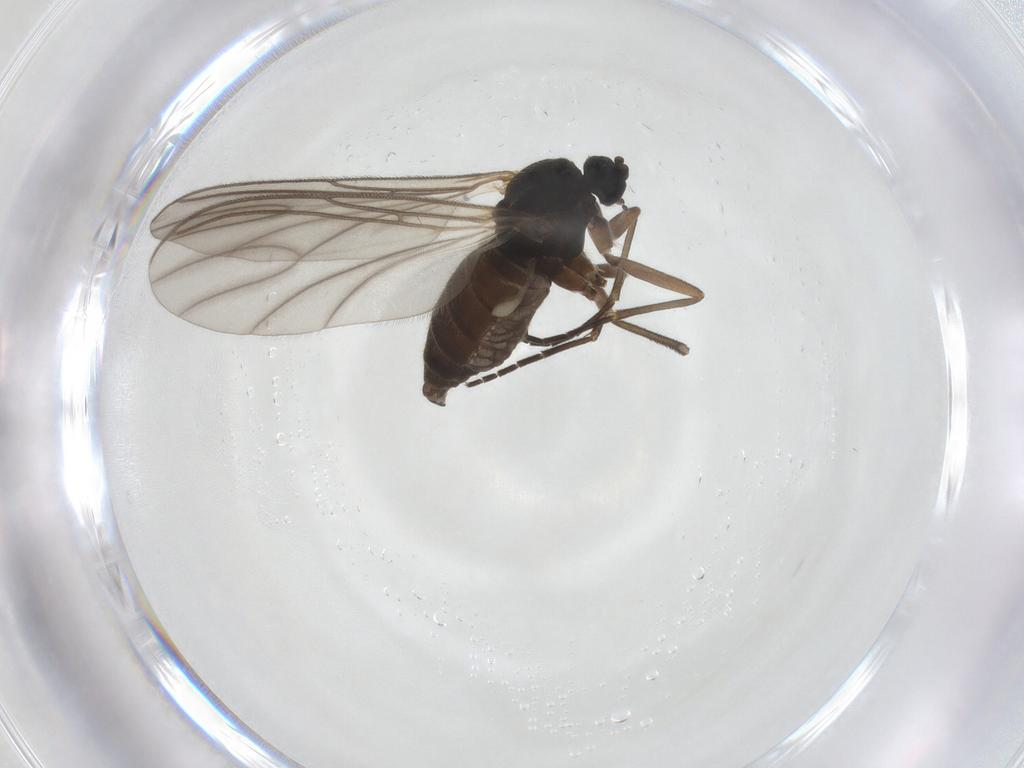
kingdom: Animalia
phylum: Arthropoda
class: Insecta
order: Diptera
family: Sciaridae
